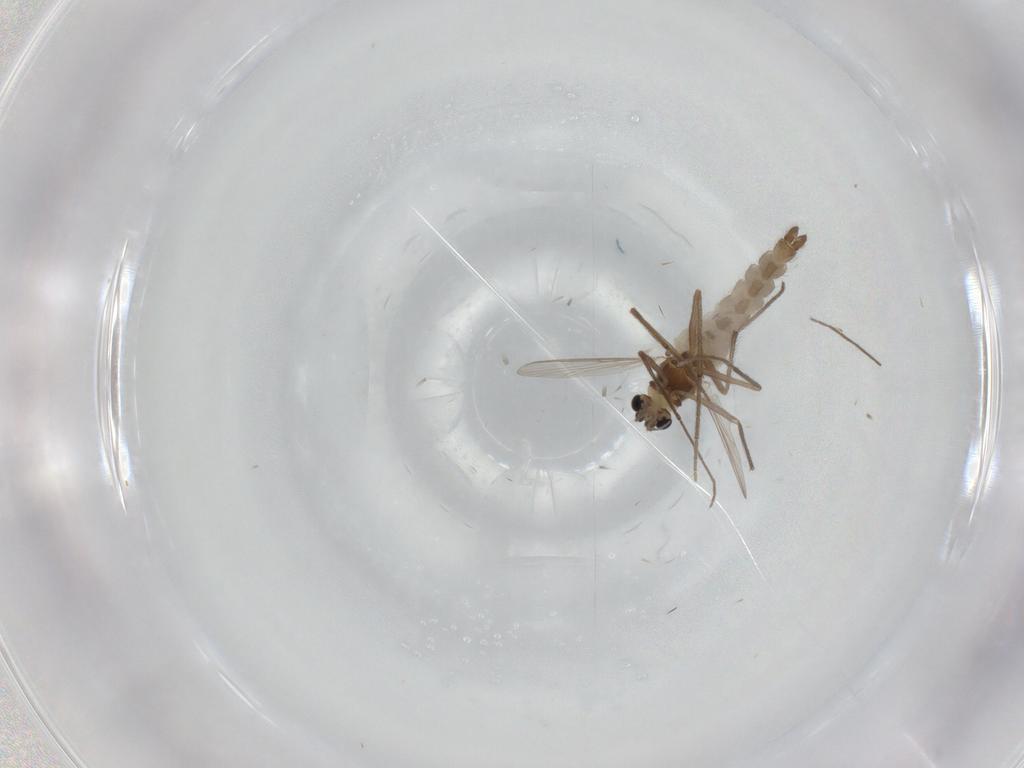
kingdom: Animalia
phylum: Arthropoda
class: Insecta
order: Diptera
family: Chironomidae
